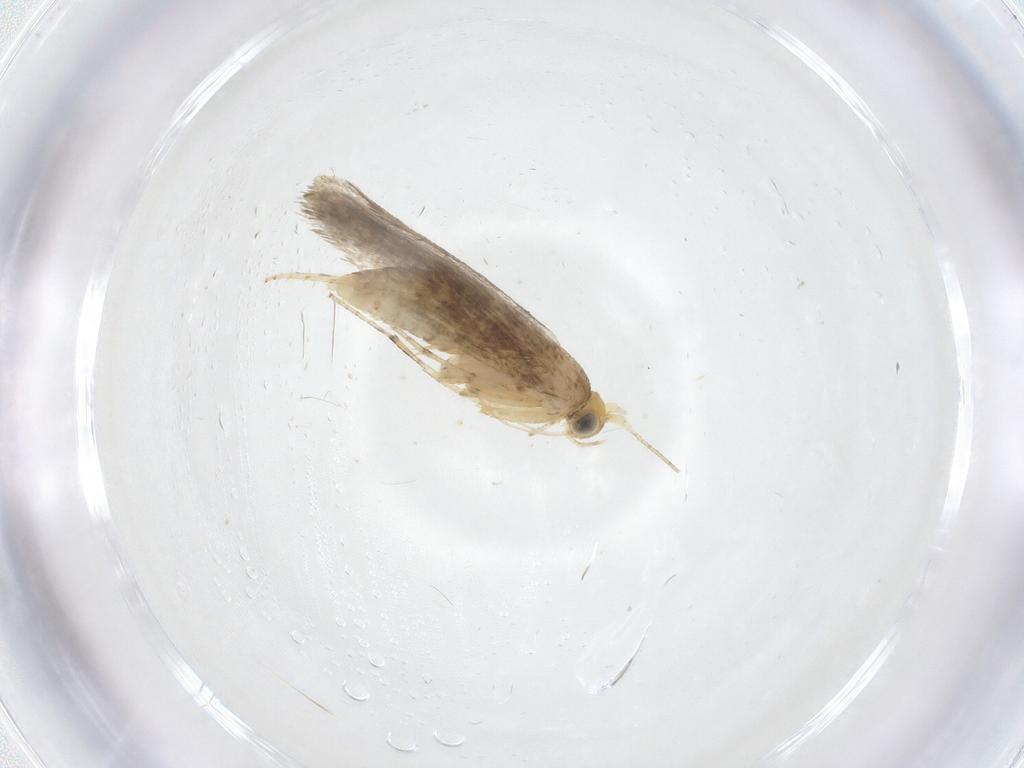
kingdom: Animalia
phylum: Arthropoda
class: Insecta
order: Lepidoptera
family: Argyresthiidae
